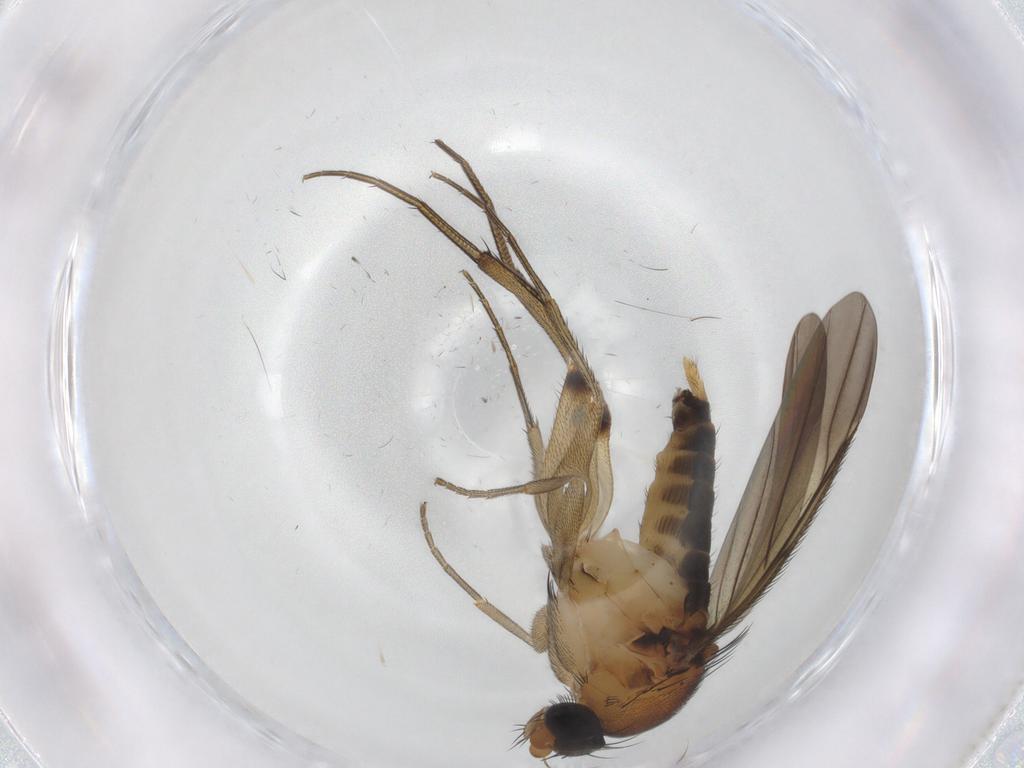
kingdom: Animalia
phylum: Arthropoda
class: Insecta
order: Diptera
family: Phoridae
